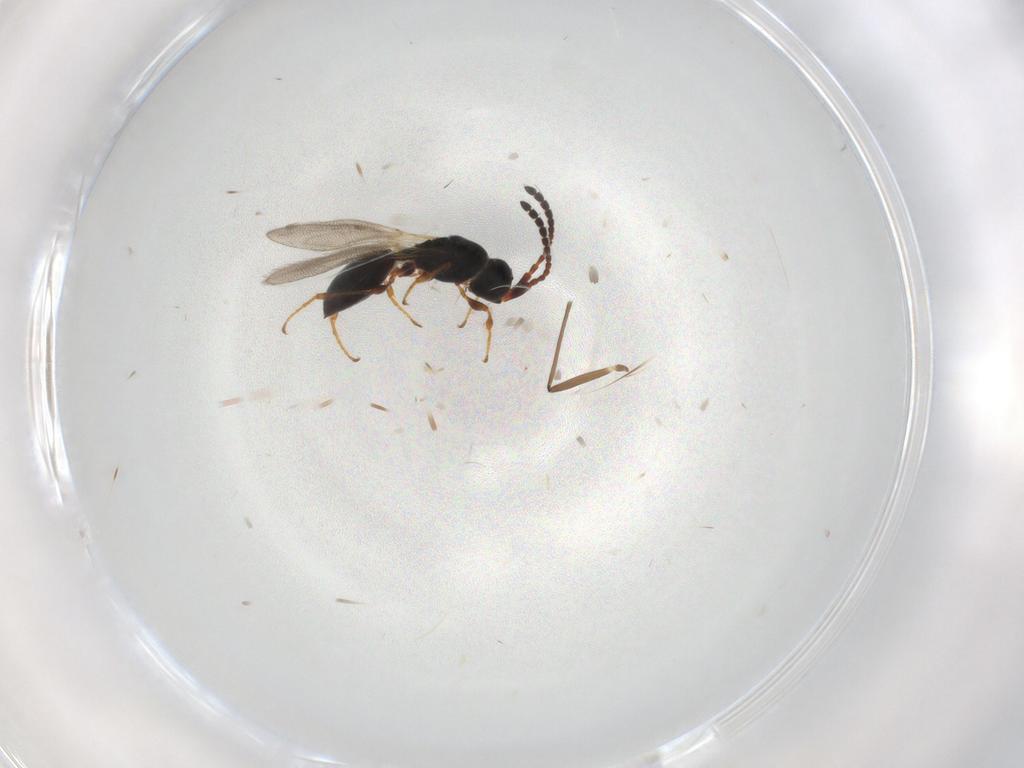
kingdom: Animalia
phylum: Arthropoda
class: Insecta
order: Hymenoptera
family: Diapriidae
